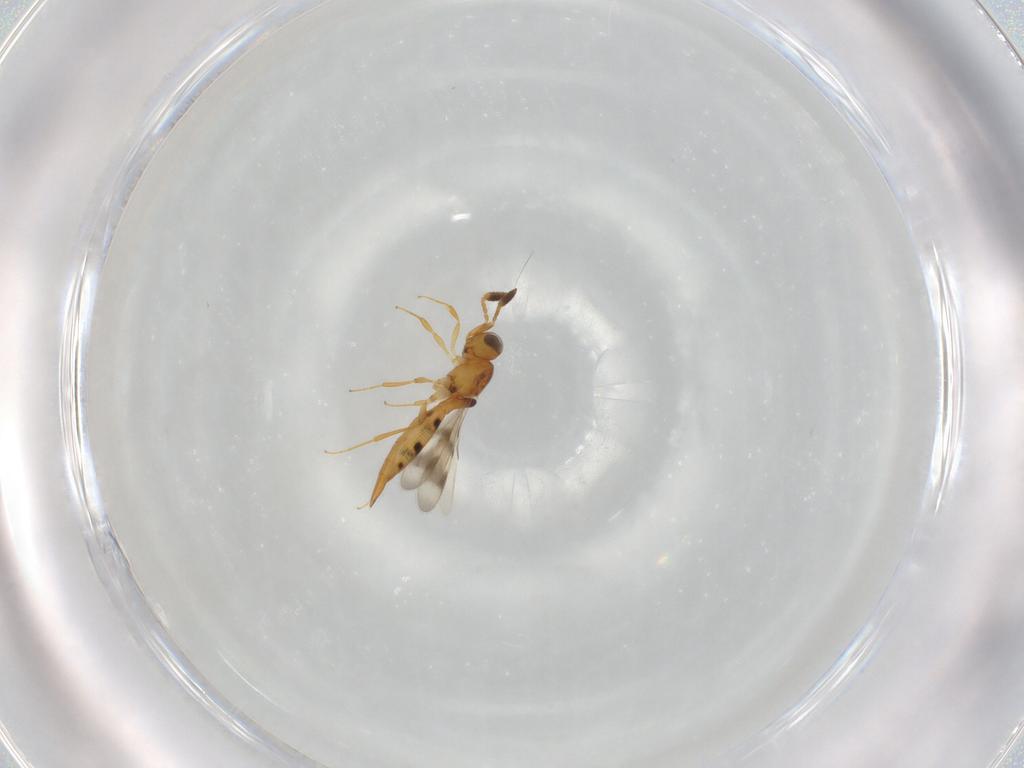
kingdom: Animalia
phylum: Arthropoda
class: Insecta
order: Hymenoptera
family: Scelionidae
